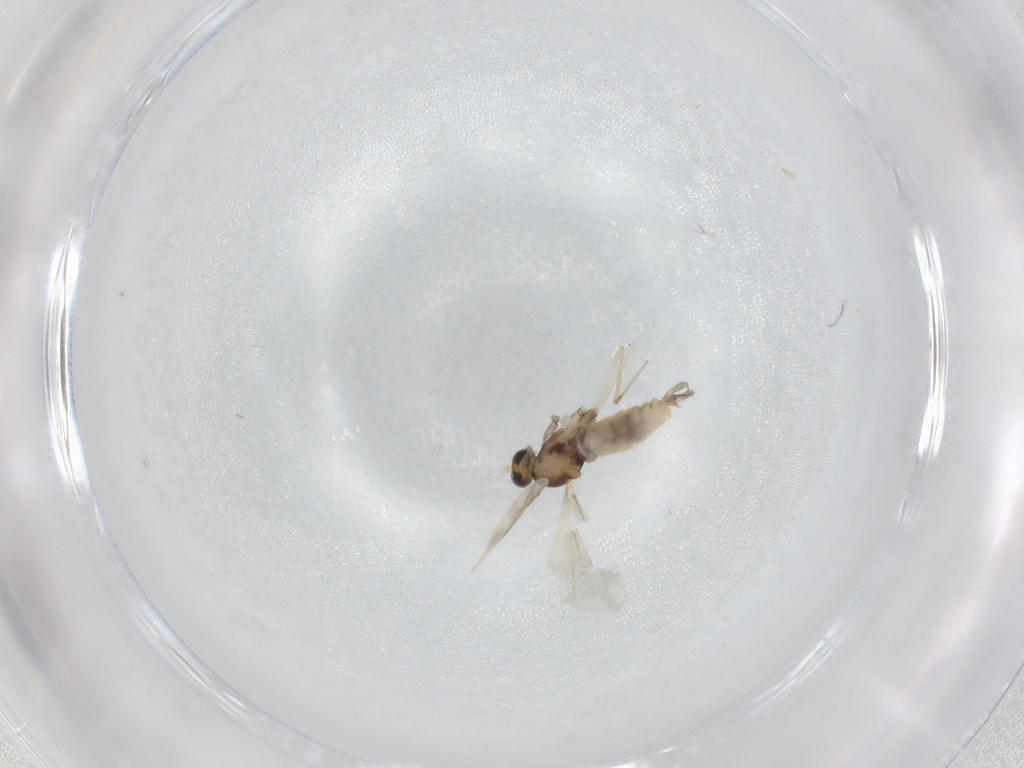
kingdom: Animalia
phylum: Arthropoda
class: Insecta
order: Diptera
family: Cecidomyiidae
